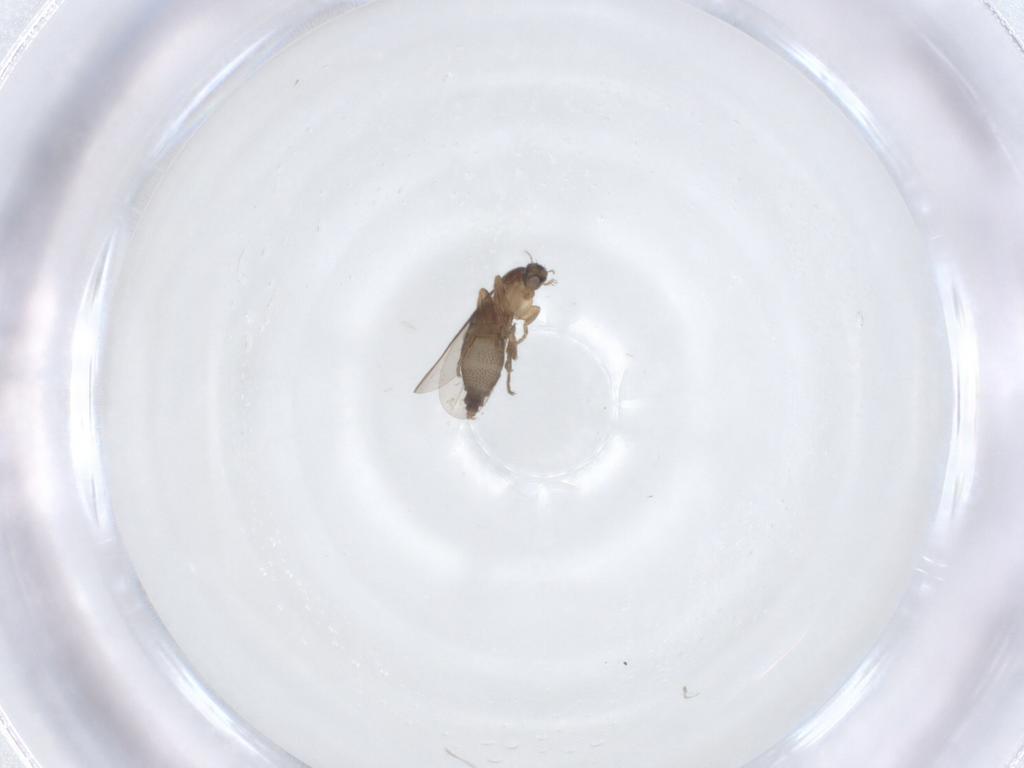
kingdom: Animalia
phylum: Arthropoda
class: Insecta
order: Diptera
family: Phoridae
